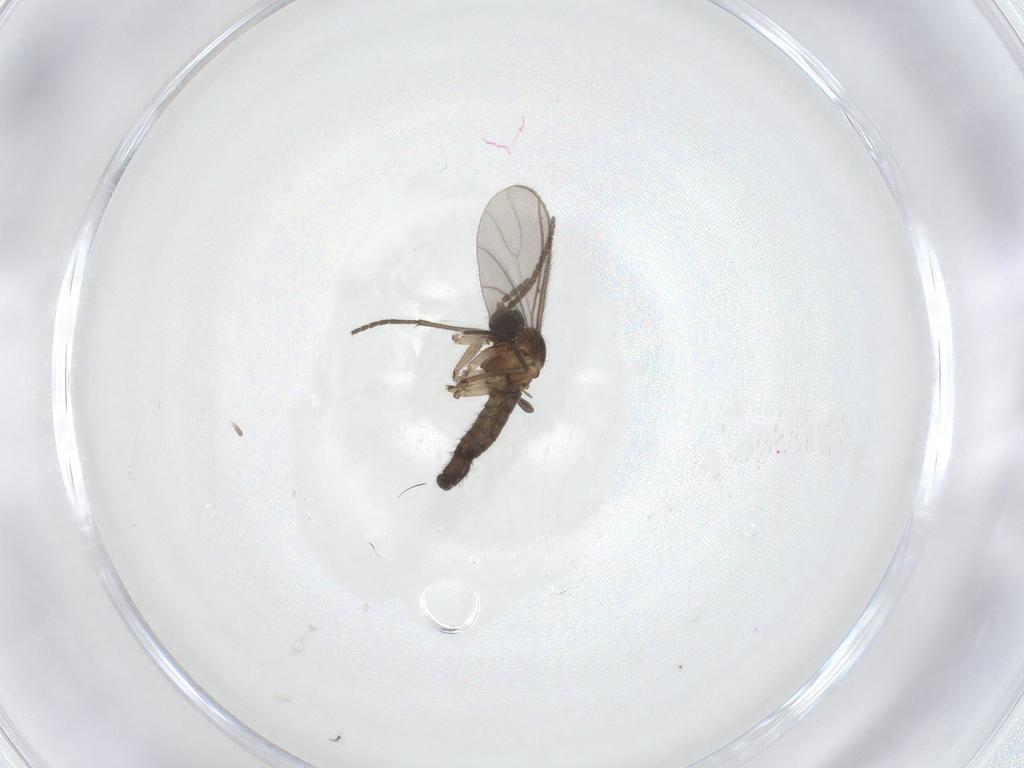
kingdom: Animalia
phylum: Arthropoda
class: Insecta
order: Diptera
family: Sciaridae
